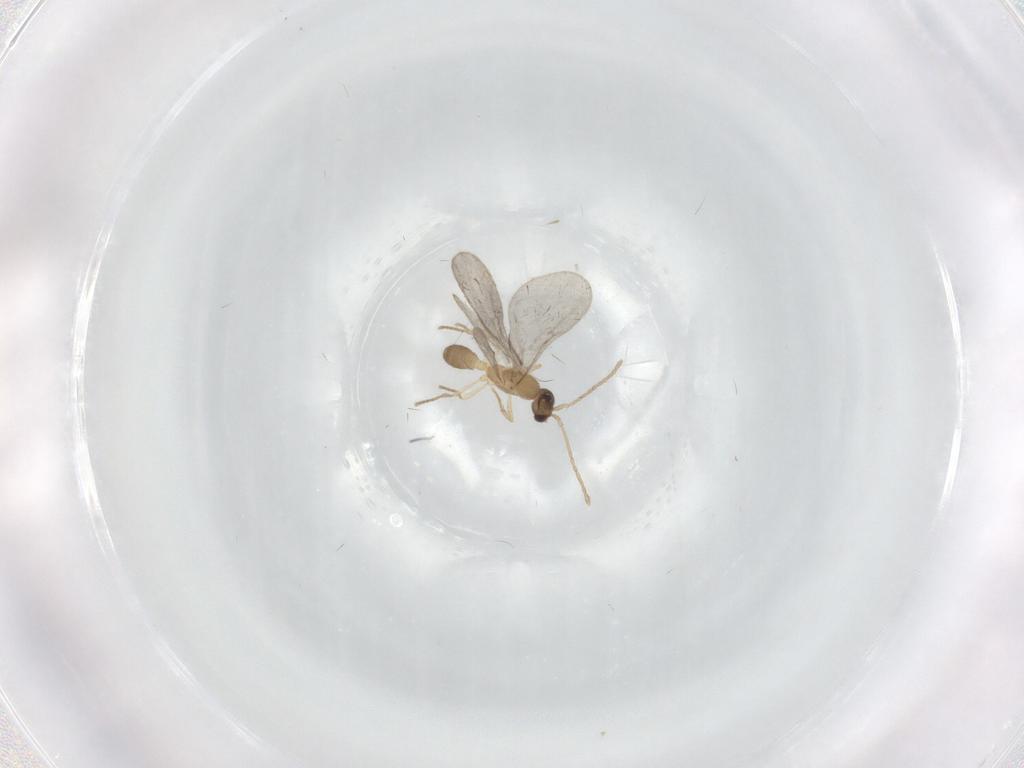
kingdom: Animalia
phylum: Arthropoda
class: Insecta
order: Hymenoptera
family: Formicidae
